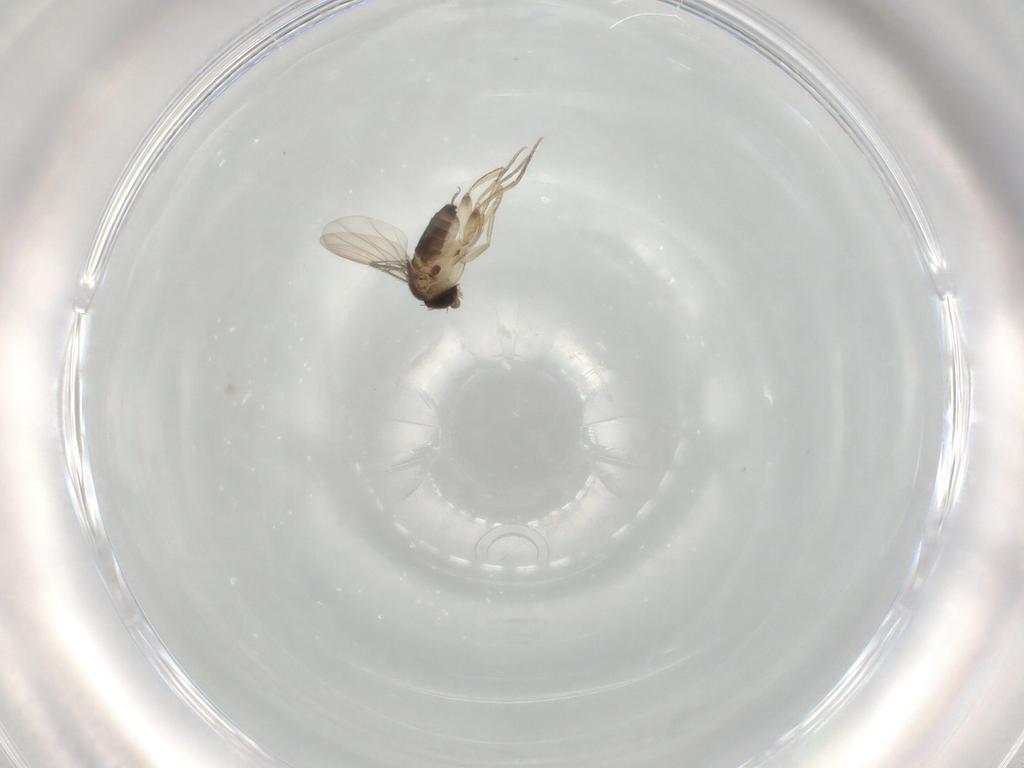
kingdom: Animalia
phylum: Arthropoda
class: Insecta
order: Diptera
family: Phoridae
